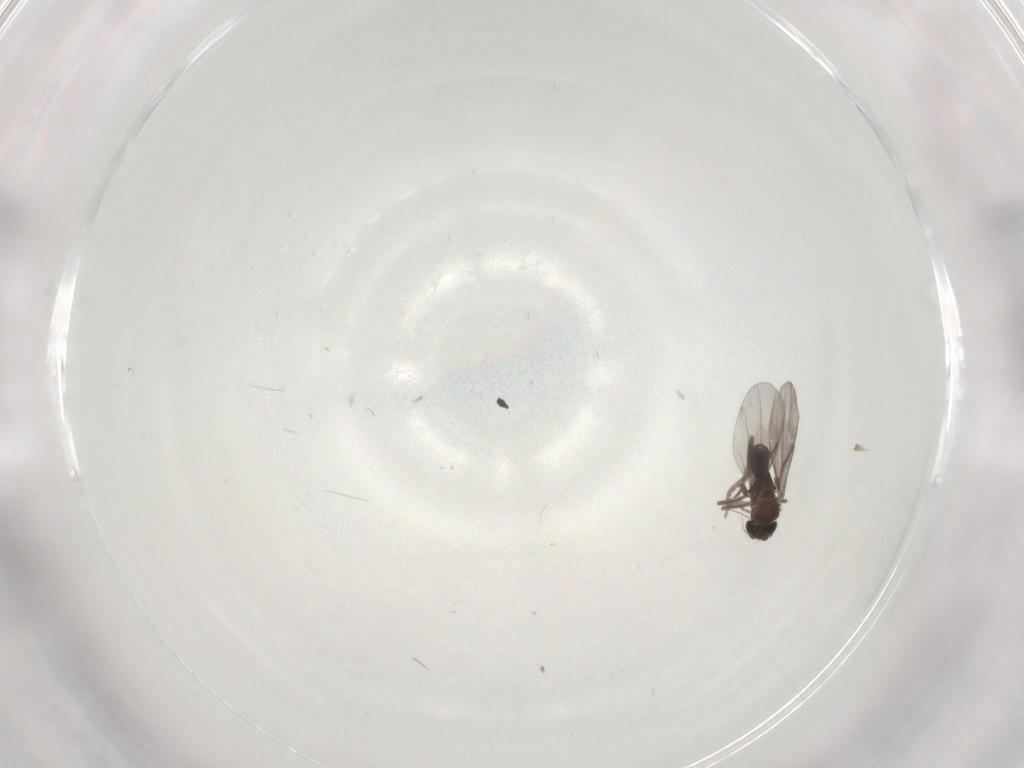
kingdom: Animalia
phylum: Arthropoda
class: Insecta
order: Diptera
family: Cecidomyiidae
